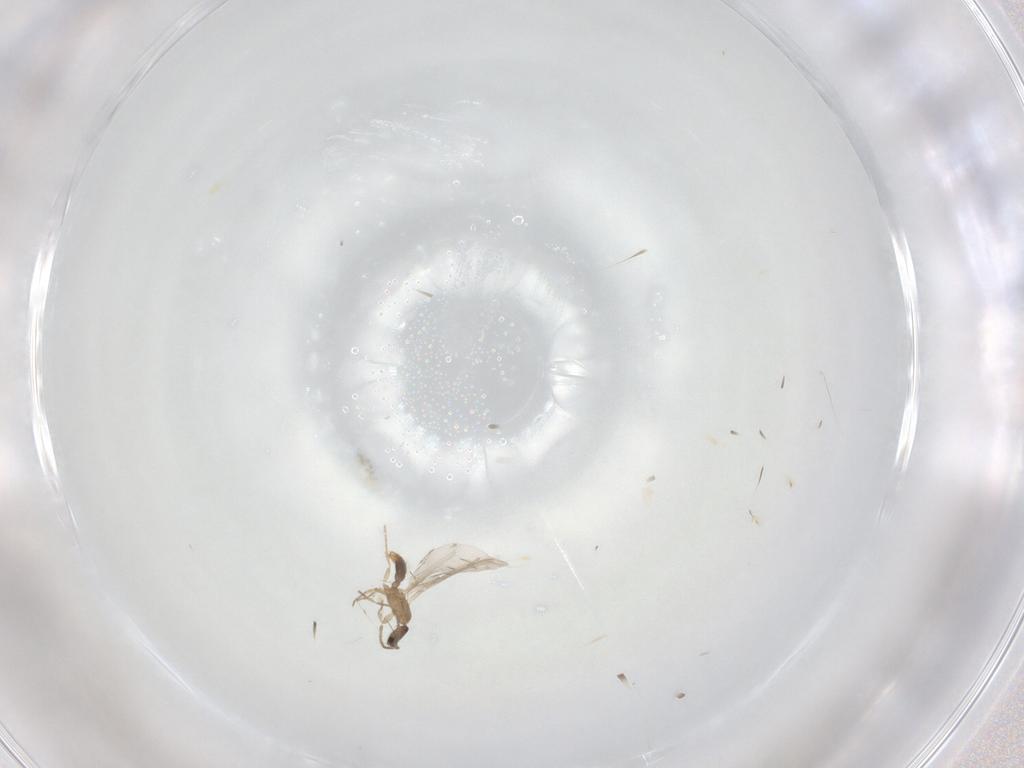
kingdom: Animalia
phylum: Arthropoda
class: Insecta
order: Hymenoptera
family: Formicidae
